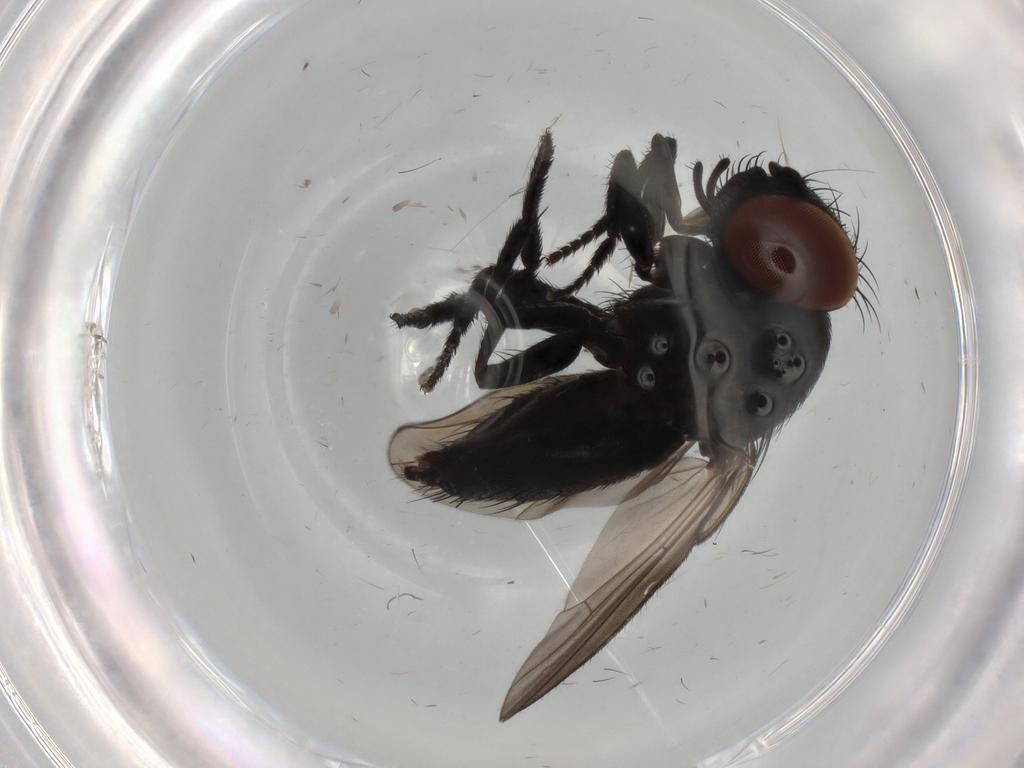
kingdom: Animalia
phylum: Arthropoda
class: Insecta
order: Diptera
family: Milichiidae
